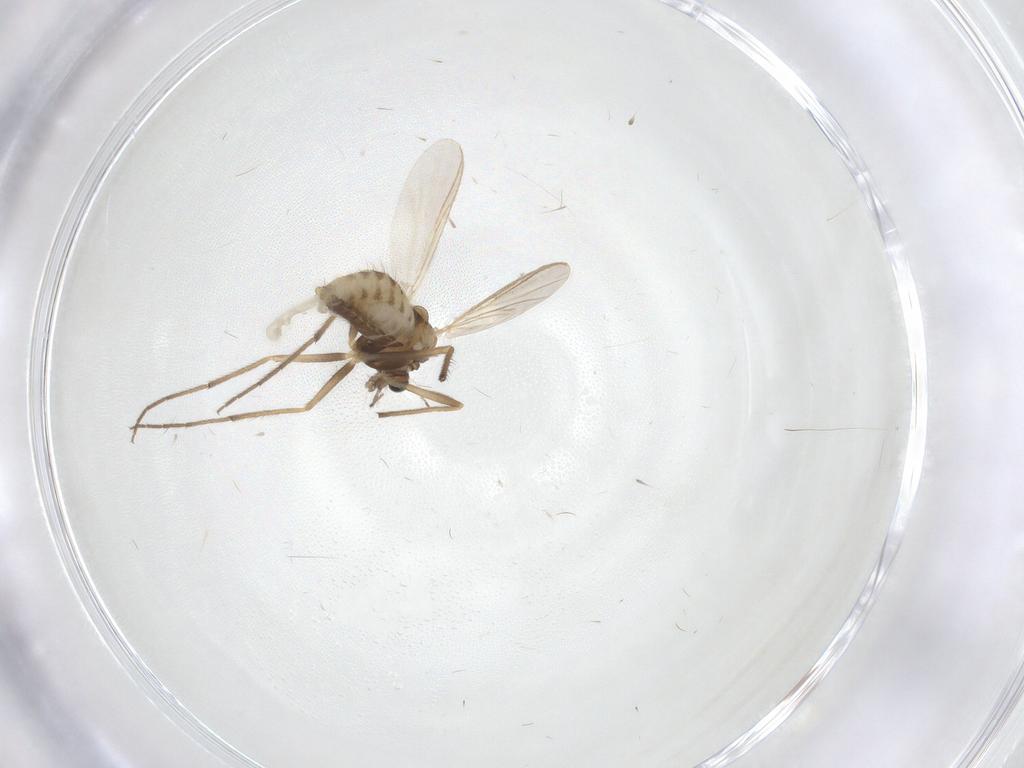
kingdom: Animalia
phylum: Arthropoda
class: Insecta
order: Diptera
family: Chironomidae
